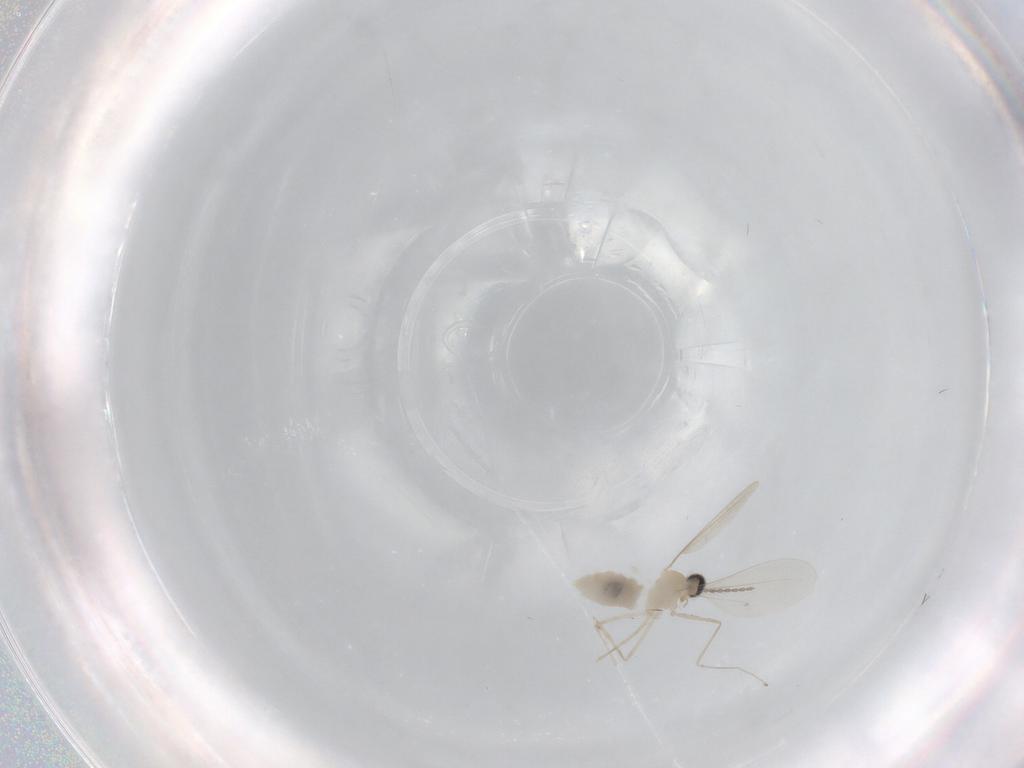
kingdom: Animalia
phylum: Arthropoda
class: Insecta
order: Diptera
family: Cecidomyiidae
